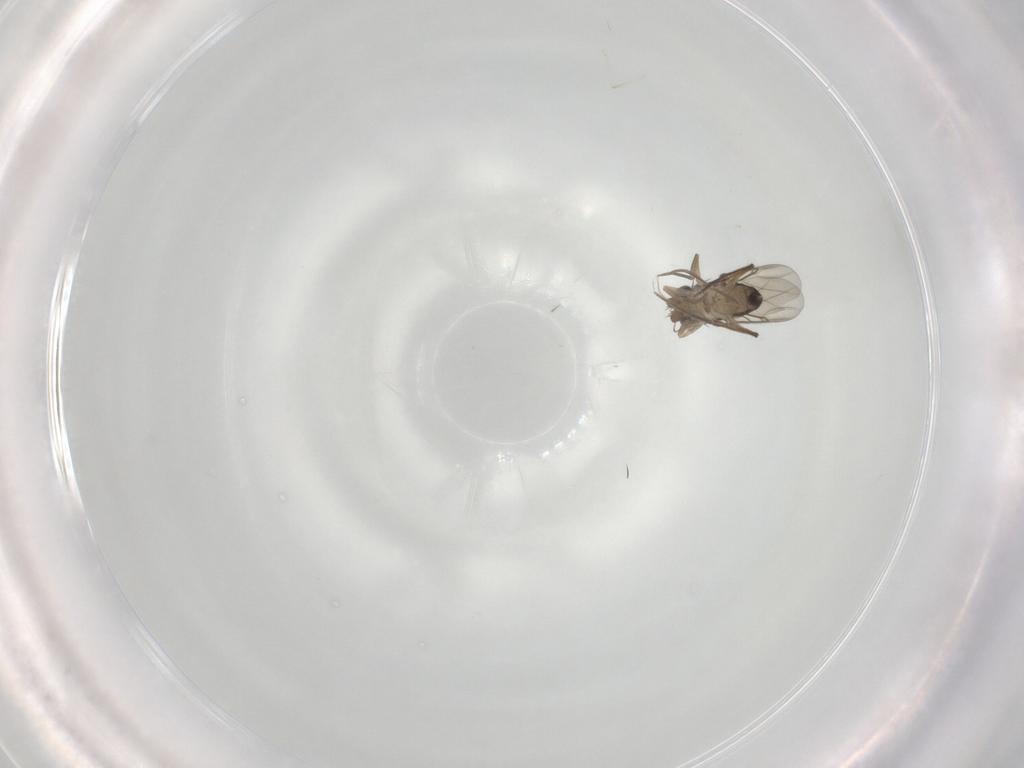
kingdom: Animalia
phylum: Arthropoda
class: Insecta
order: Diptera
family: Phoridae
